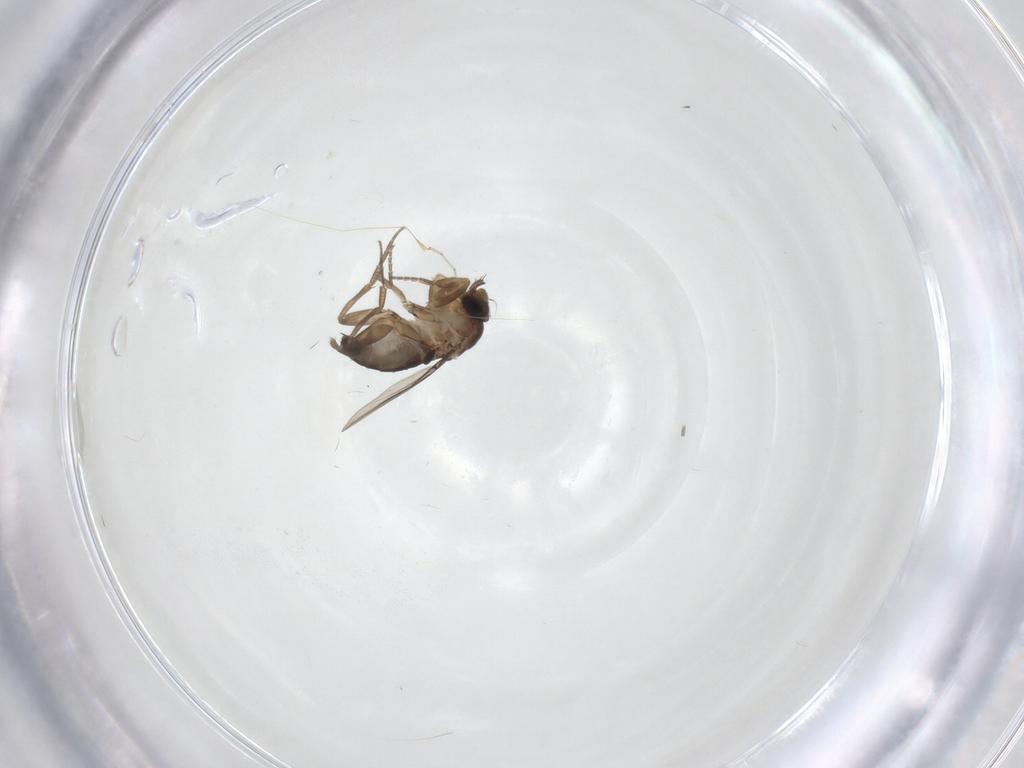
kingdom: Animalia
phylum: Arthropoda
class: Insecta
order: Diptera
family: Cecidomyiidae
